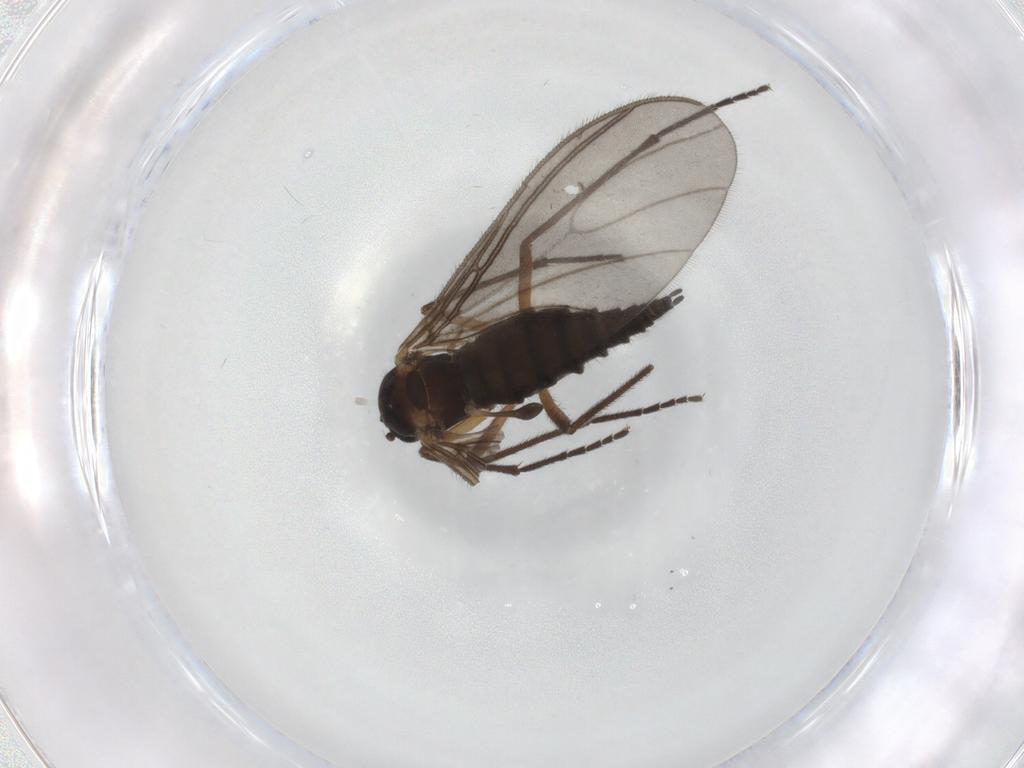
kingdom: Animalia
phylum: Arthropoda
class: Insecta
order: Diptera
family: Sciaridae
